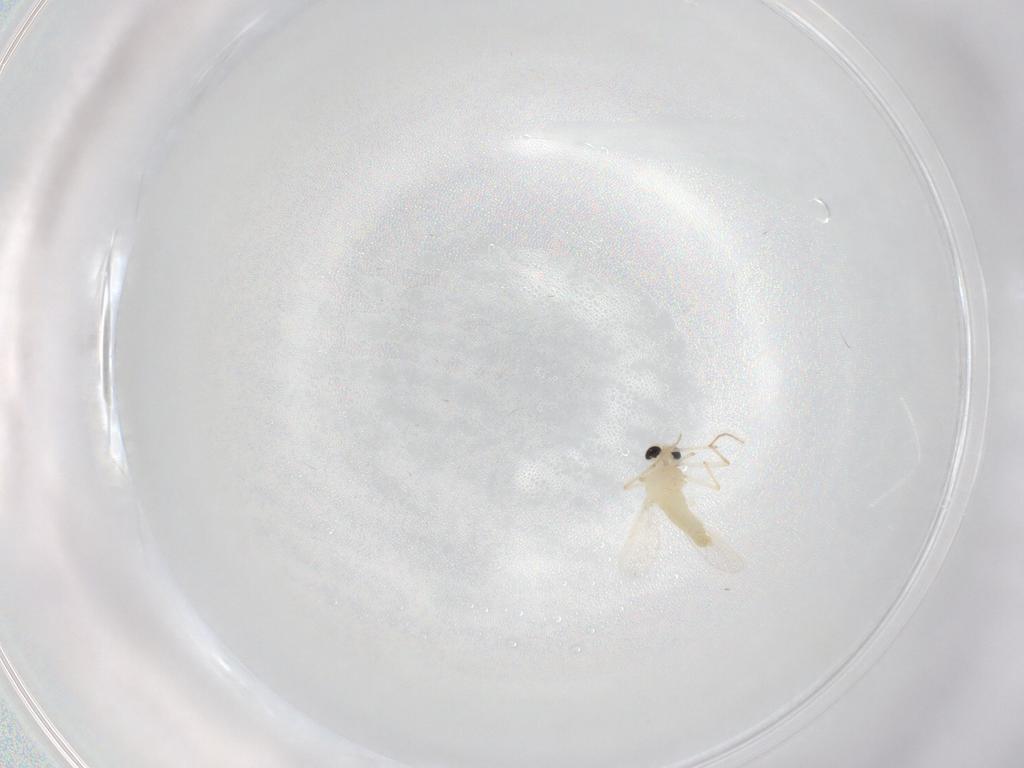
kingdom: Animalia
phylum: Arthropoda
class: Insecta
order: Diptera
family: Chironomidae
